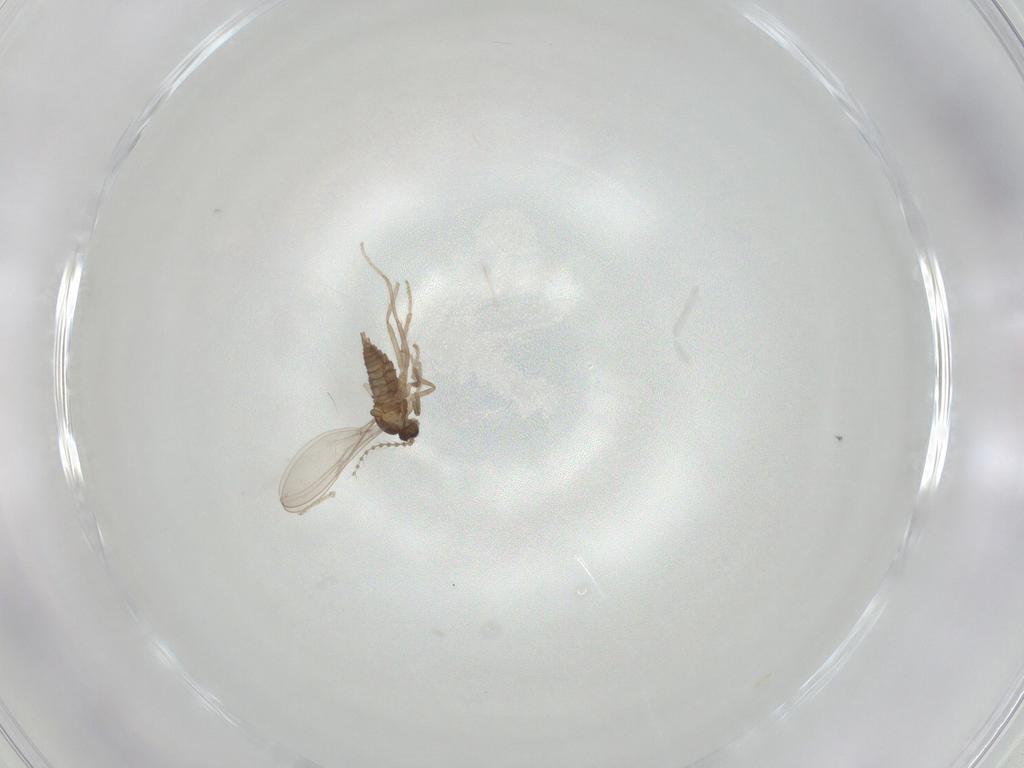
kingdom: Animalia
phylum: Arthropoda
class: Insecta
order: Diptera
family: Cecidomyiidae
